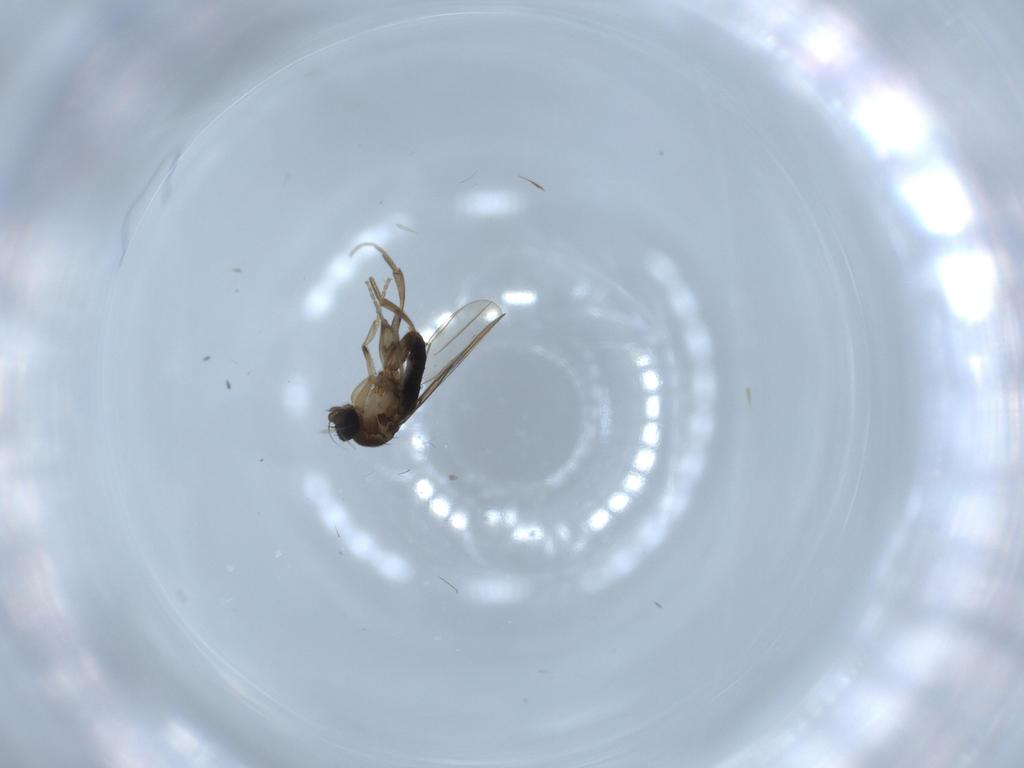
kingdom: Animalia
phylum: Arthropoda
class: Insecta
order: Diptera
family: Phoridae
